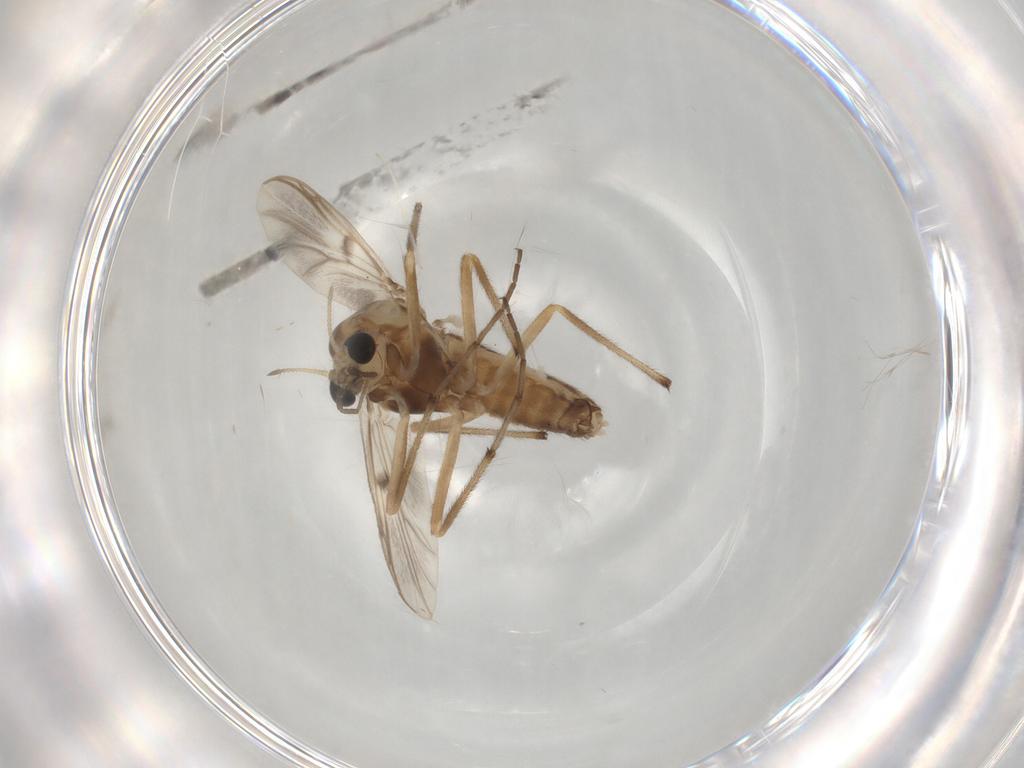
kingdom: Animalia
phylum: Arthropoda
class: Insecta
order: Diptera
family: Chironomidae
